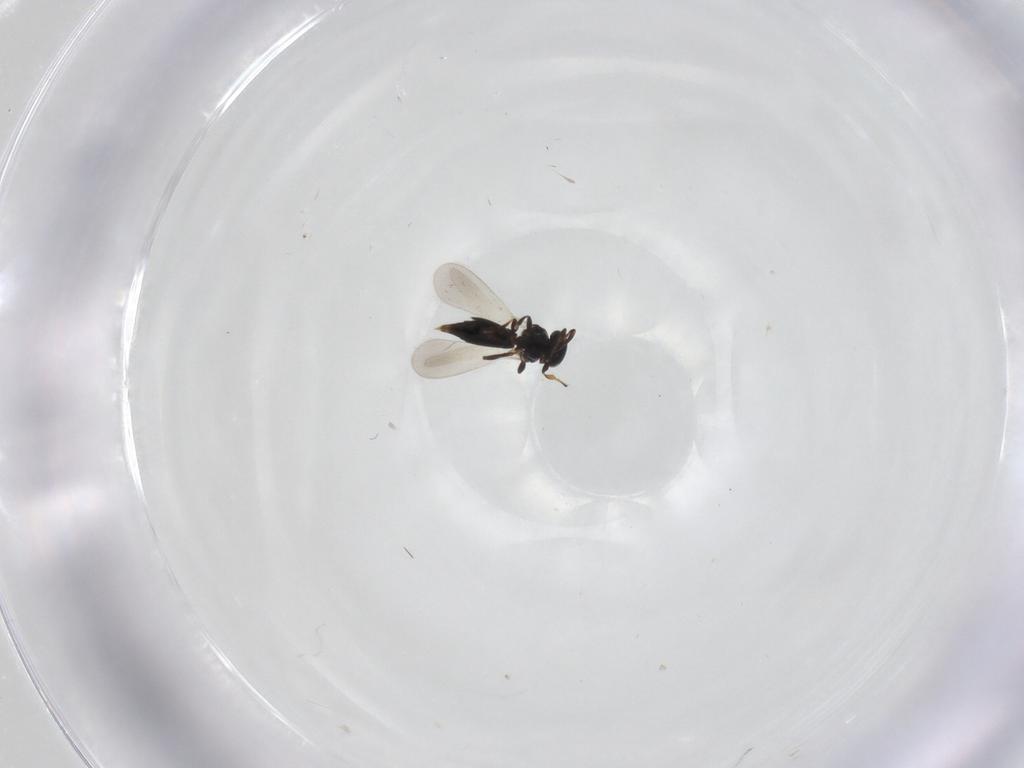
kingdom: Animalia
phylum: Arthropoda
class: Insecta
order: Hymenoptera
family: Platygastridae
